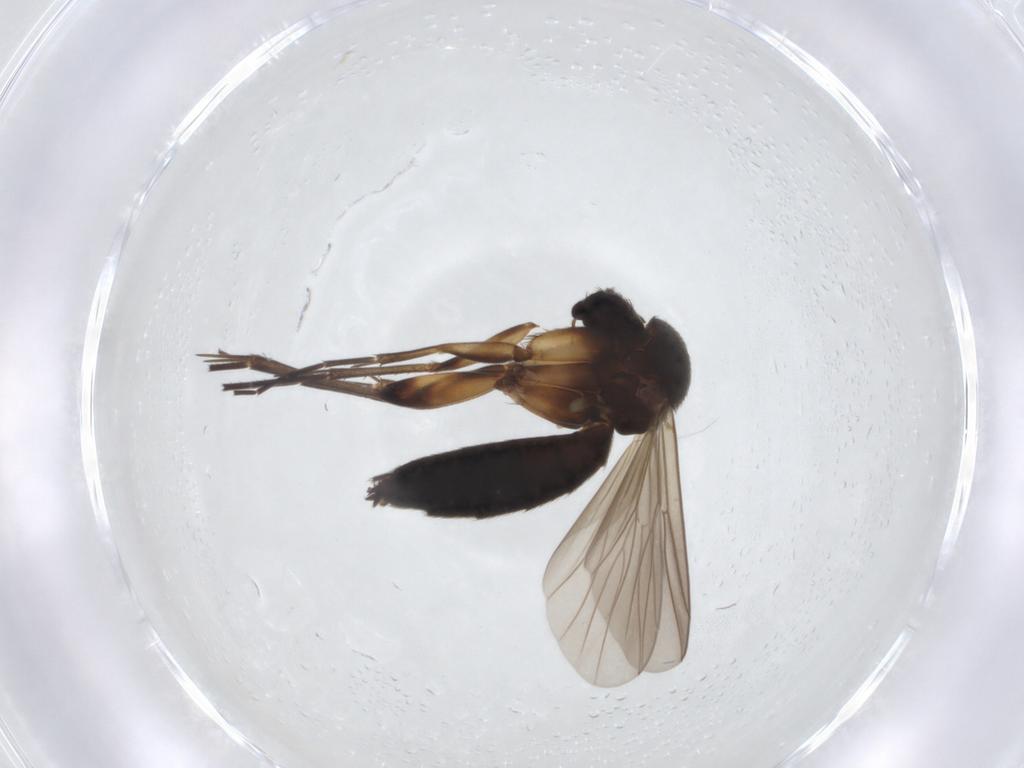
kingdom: Animalia
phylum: Arthropoda
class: Insecta
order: Diptera
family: Mycetophilidae
